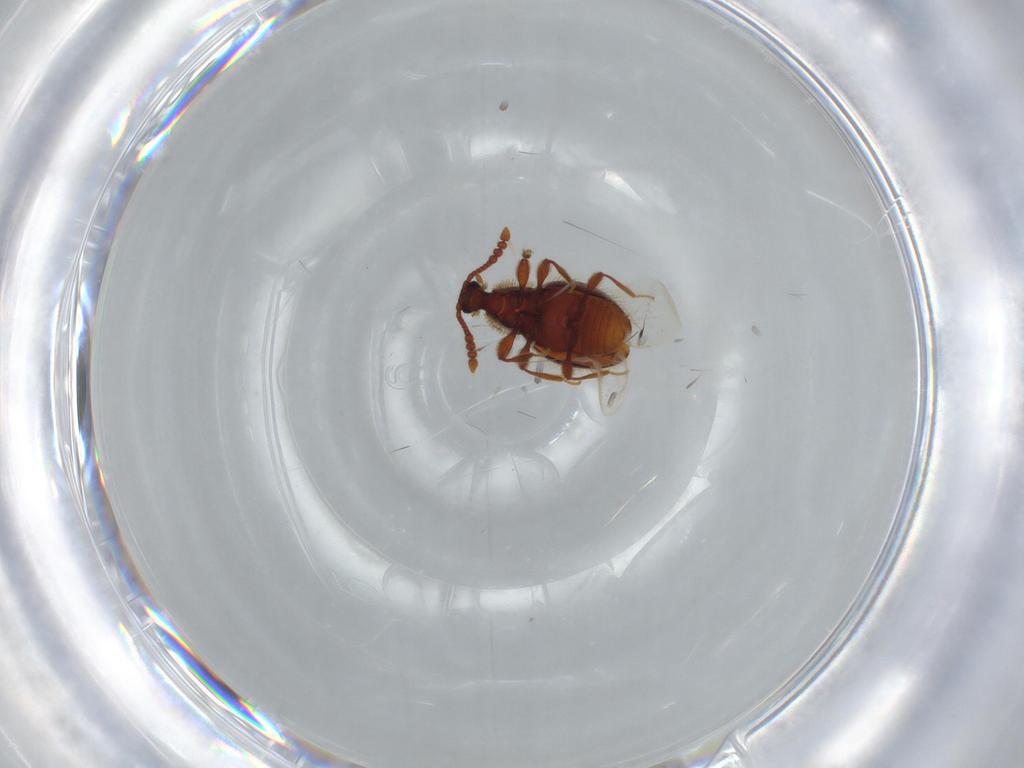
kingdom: Animalia
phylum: Arthropoda
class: Insecta
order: Coleoptera
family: Staphylinidae
